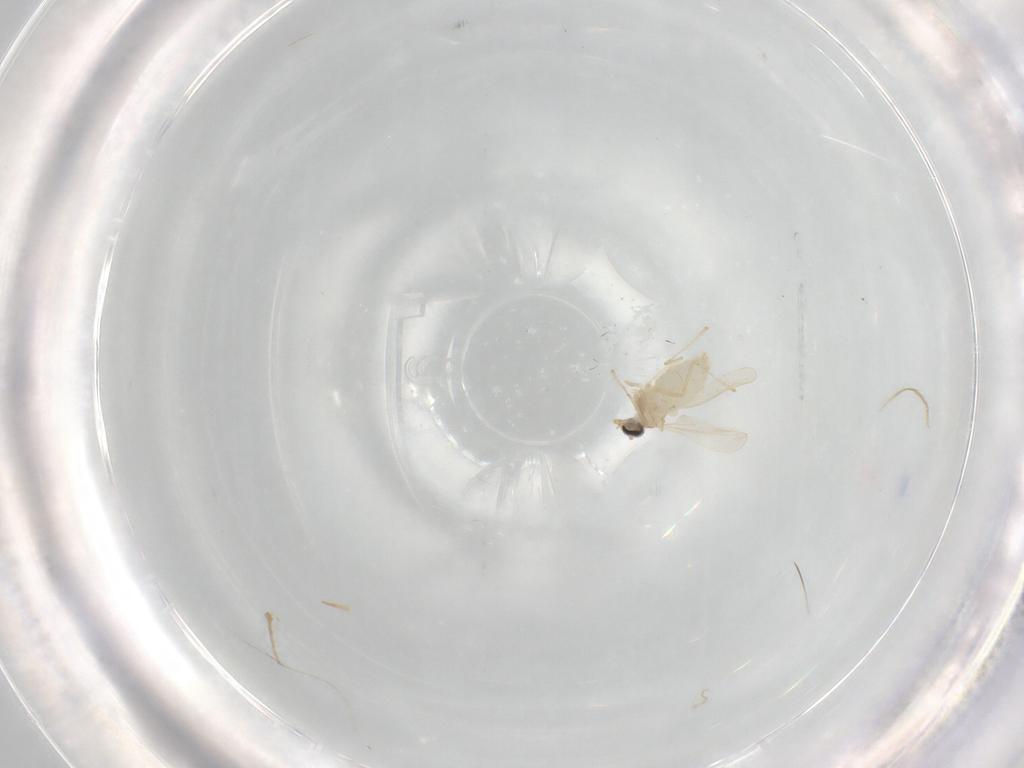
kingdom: Animalia
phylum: Arthropoda
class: Insecta
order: Diptera
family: Cecidomyiidae
